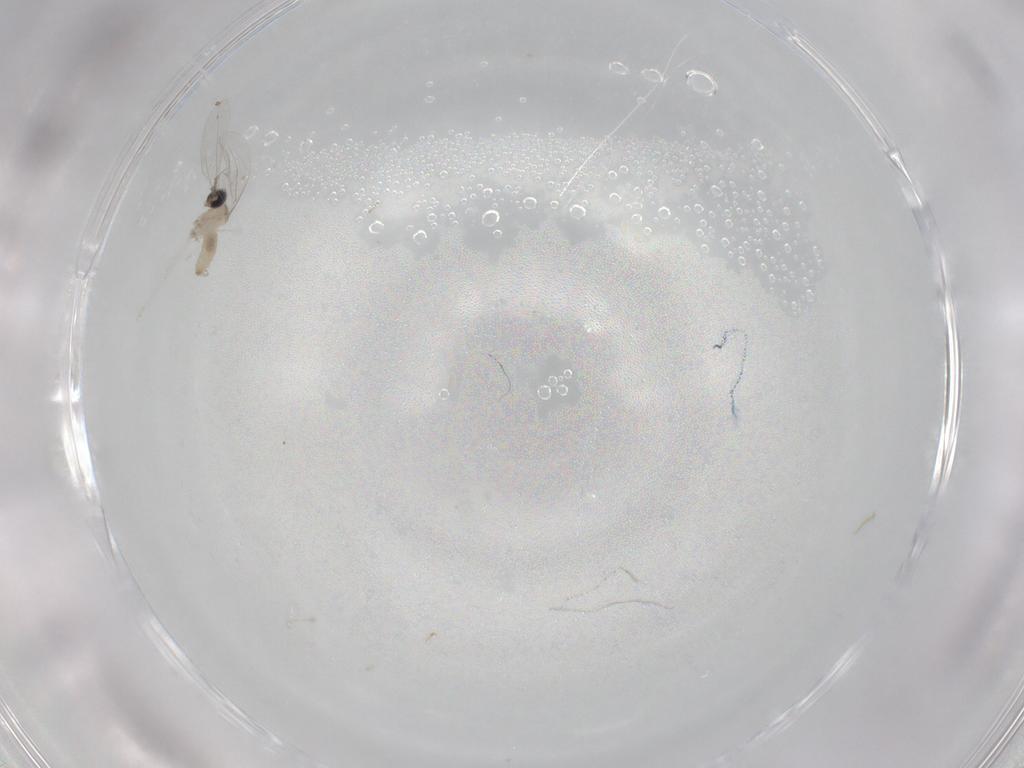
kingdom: Animalia
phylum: Arthropoda
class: Insecta
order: Diptera
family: Cecidomyiidae
